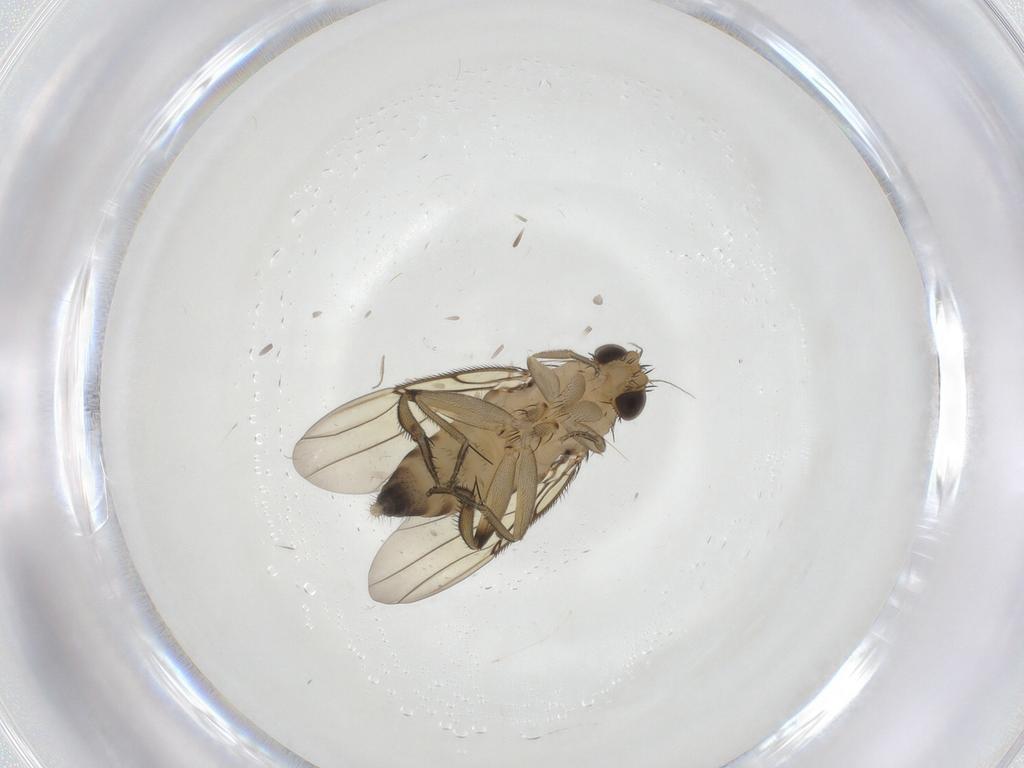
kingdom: Animalia
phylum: Arthropoda
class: Insecta
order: Diptera
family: Phoridae
